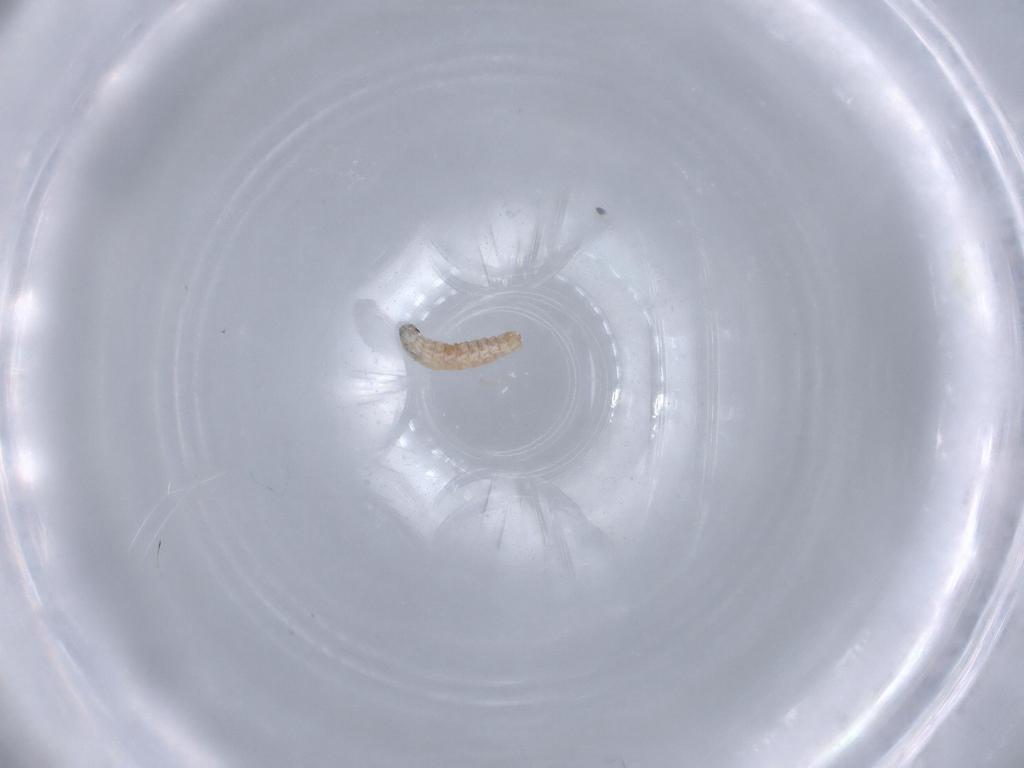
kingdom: Animalia
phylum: Arthropoda
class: Insecta
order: Diptera
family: Sarcophagidae
